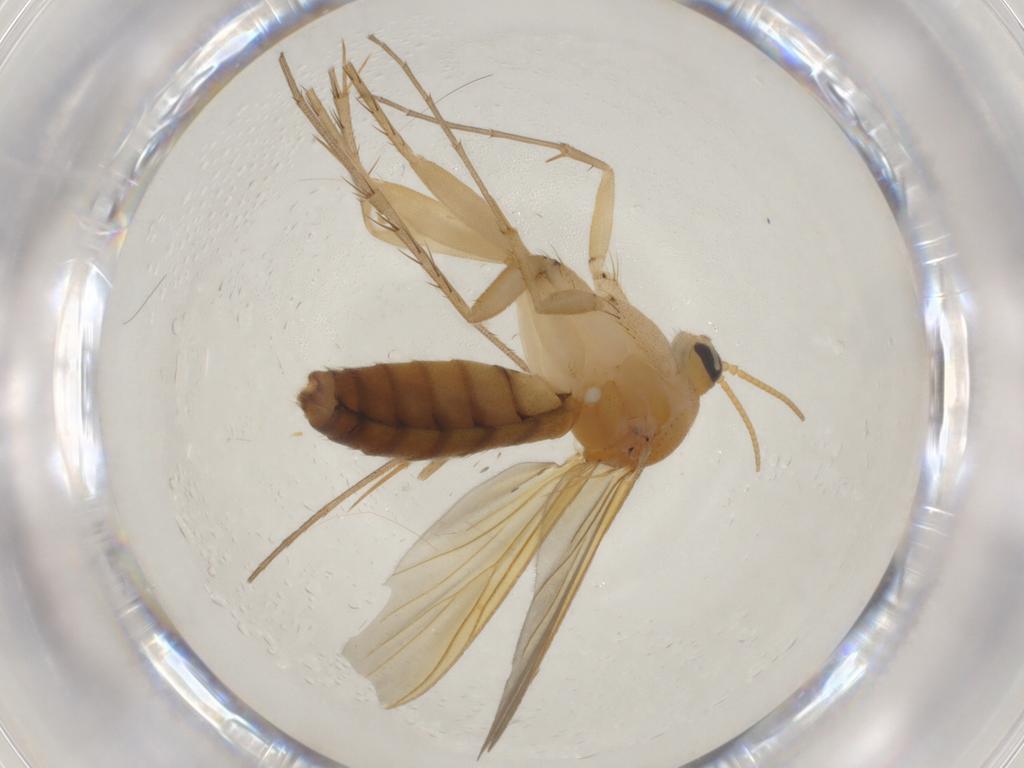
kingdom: Animalia
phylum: Arthropoda
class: Insecta
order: Diptera
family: Mycetophilidae
